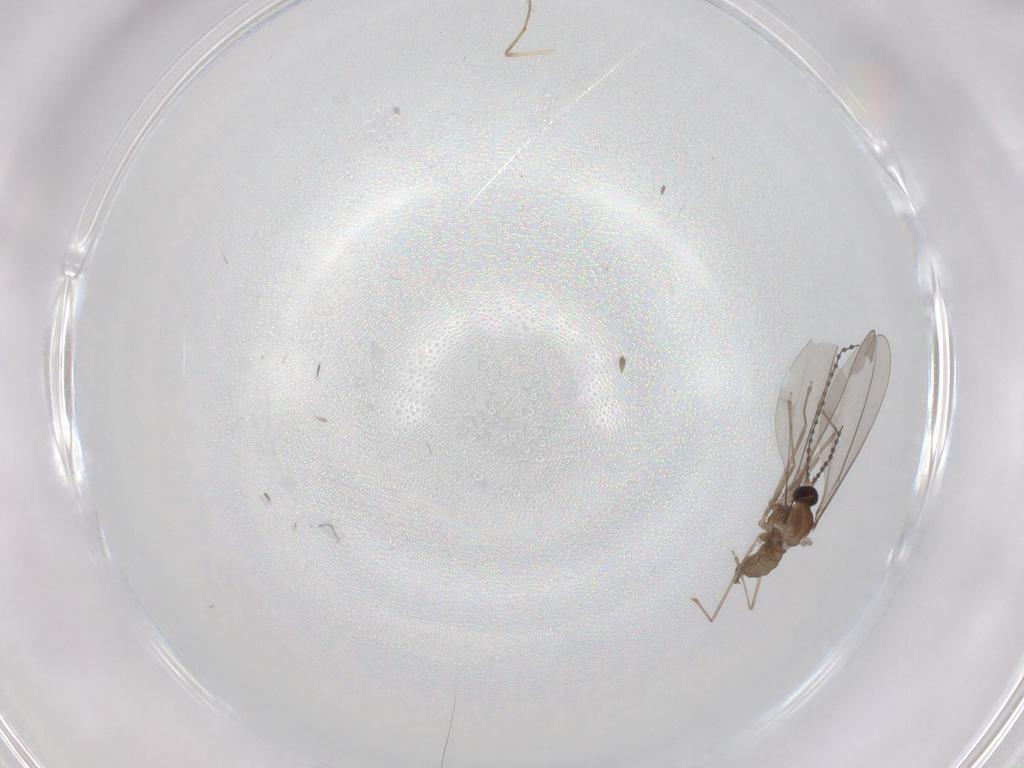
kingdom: Animalia
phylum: Arthropoda
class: Insecta
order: Diptera
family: Cecidomyiidae
